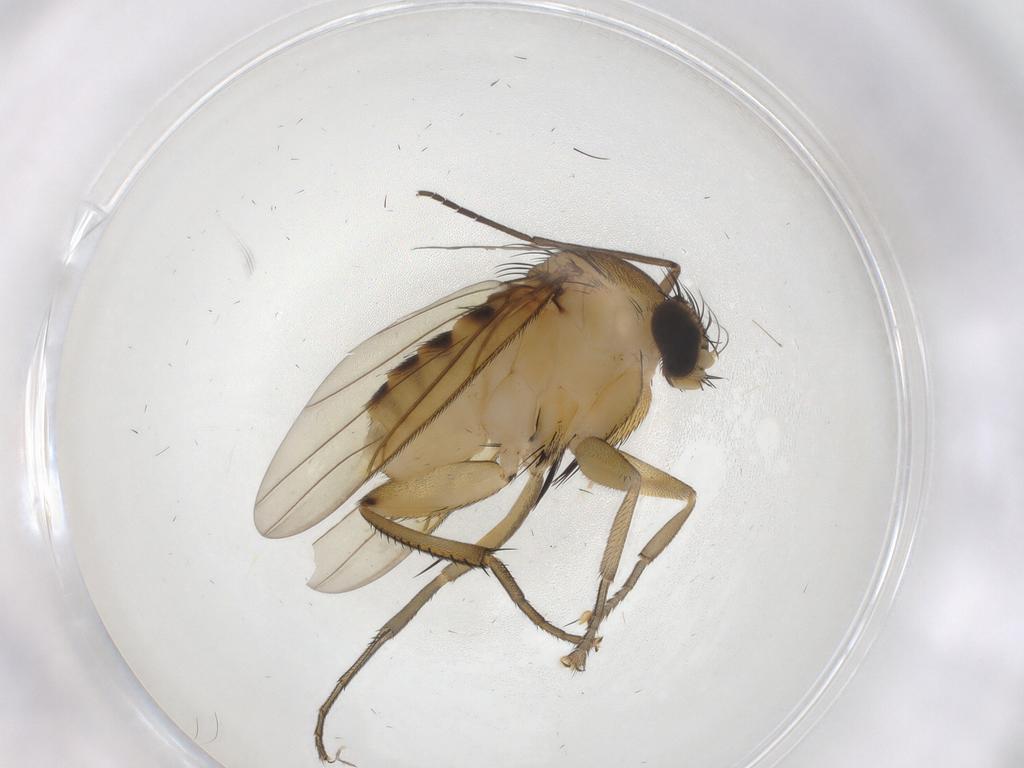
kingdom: Animalia
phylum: Arthropoda
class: Insecta
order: Diptera
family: Sciaridae
